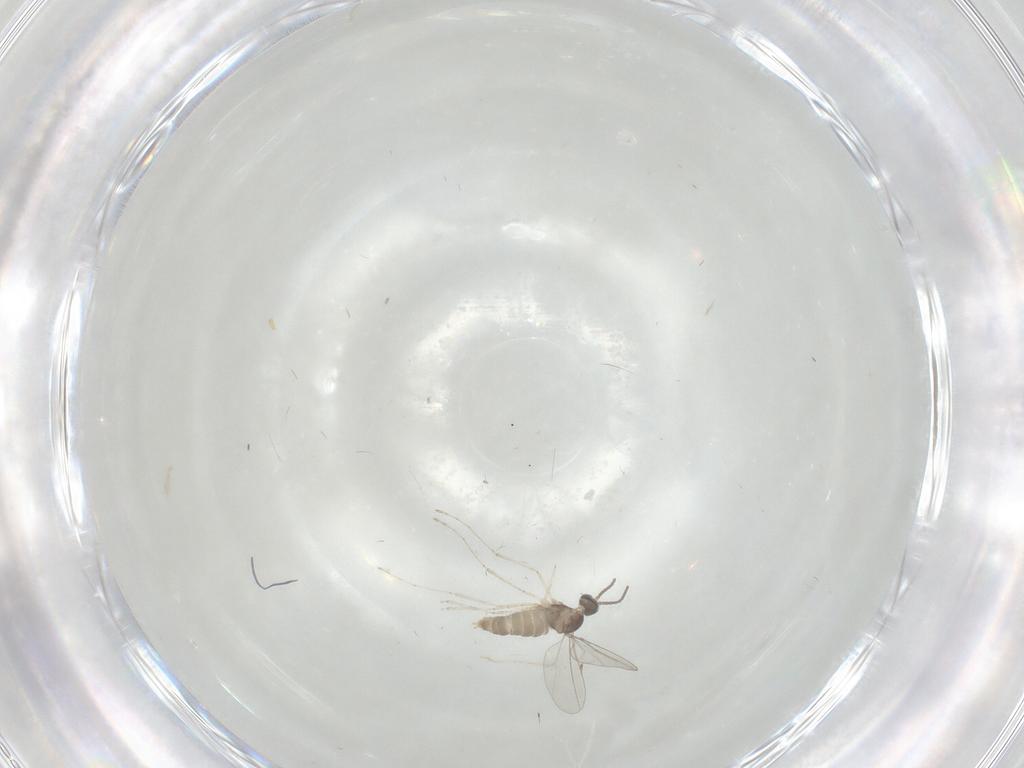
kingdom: Animalia
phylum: Arthropoda
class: Insecta
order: Diptera
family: Cecidomyiidae
